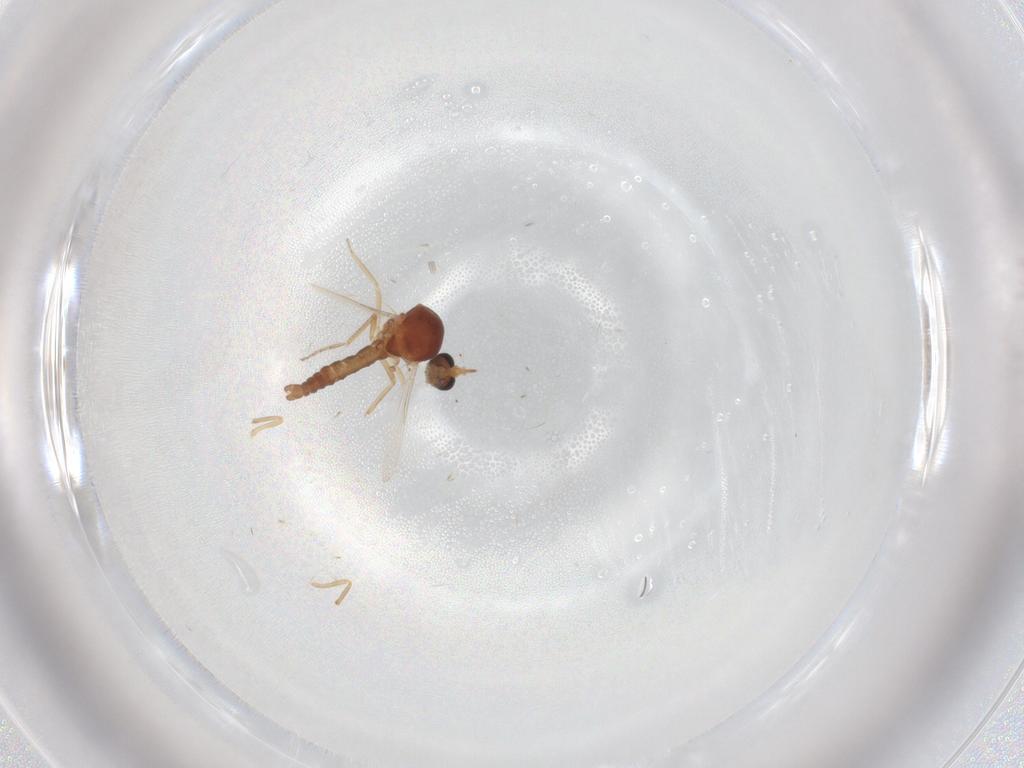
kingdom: Animalia
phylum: Arthropoda
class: Insecta
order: Diptera
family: Ceratopogonidae
